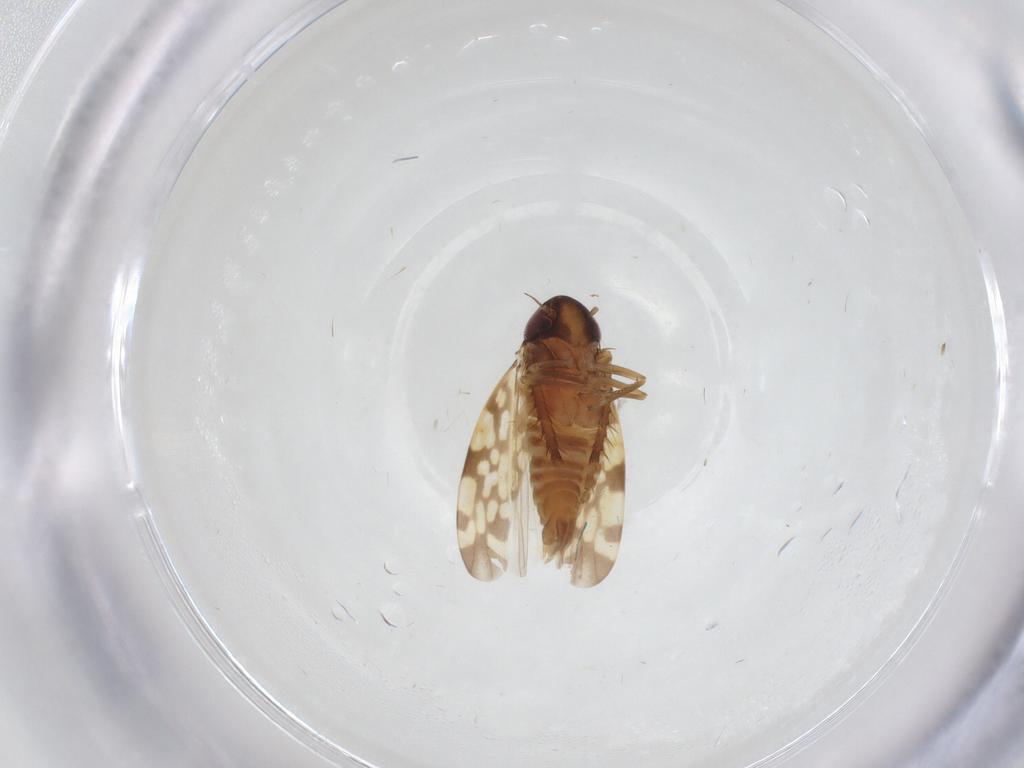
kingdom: Animalia
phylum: Arthropoda
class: Insecta
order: Hemiptera
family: Cicadellidae
